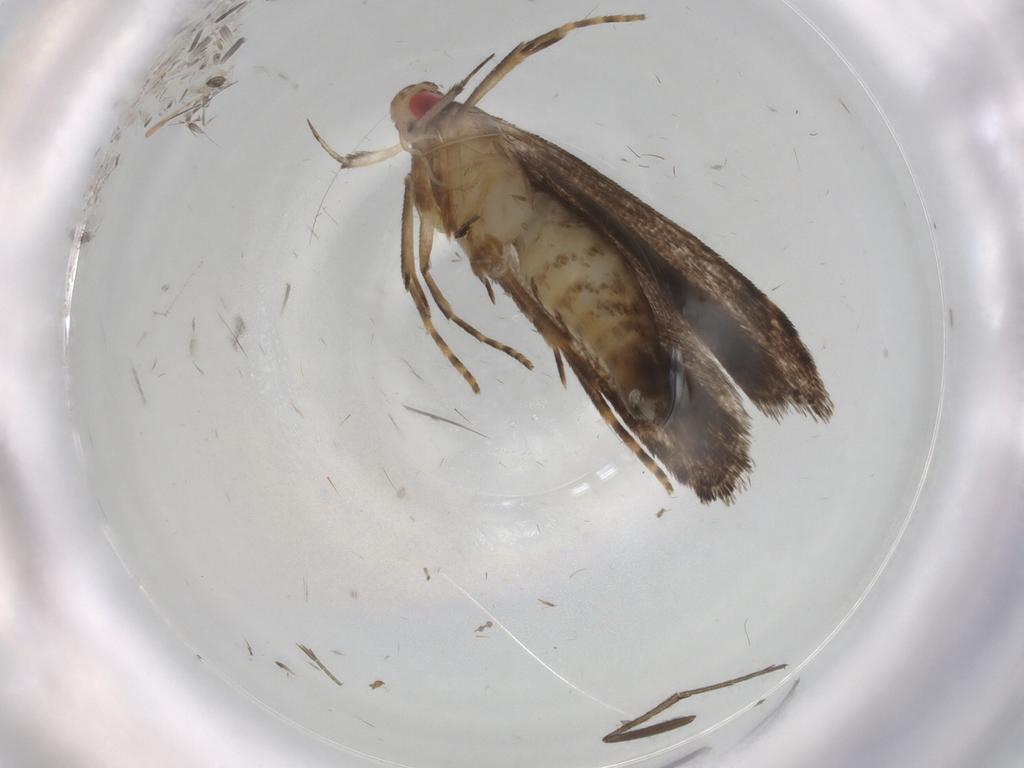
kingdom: Animalia
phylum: Arthropoda
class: Insecta
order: Lepidoptera
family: Gelechiidae
